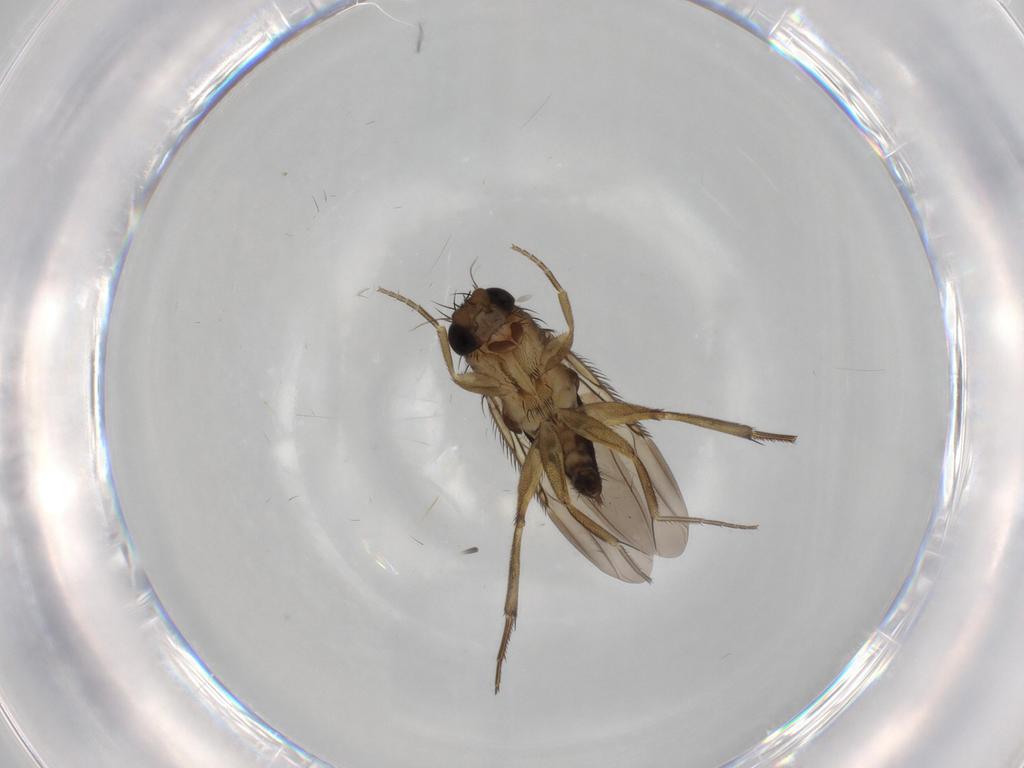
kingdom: Animalia
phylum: Arthropoda
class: Insecta
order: Diptera
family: Phoridae
